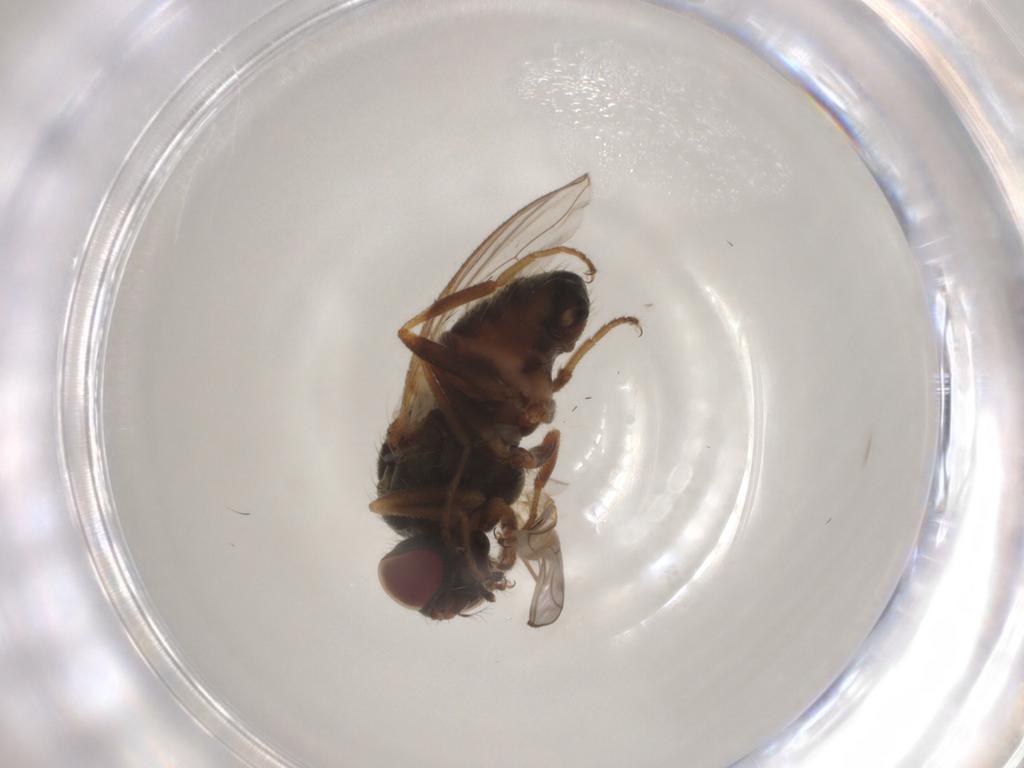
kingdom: Animalia
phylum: Arthropoda
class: Insecta
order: Diptera
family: Muscidae
